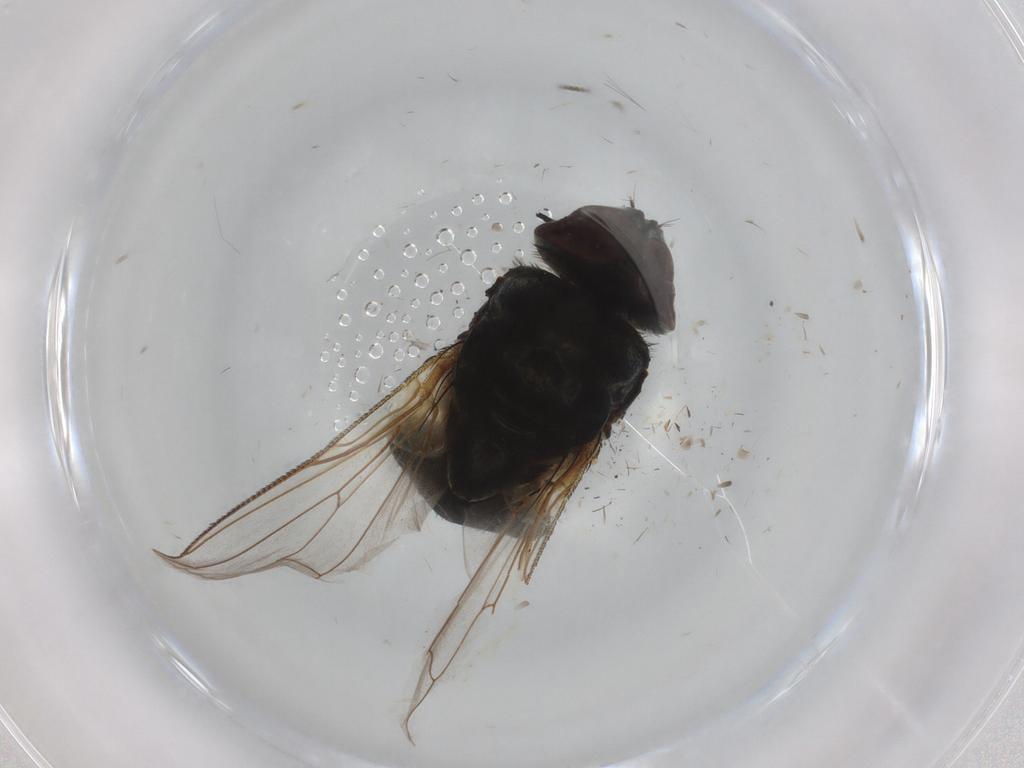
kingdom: Animalia
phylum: Arthropoda
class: Insecta
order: Diptera
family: Muscidae
